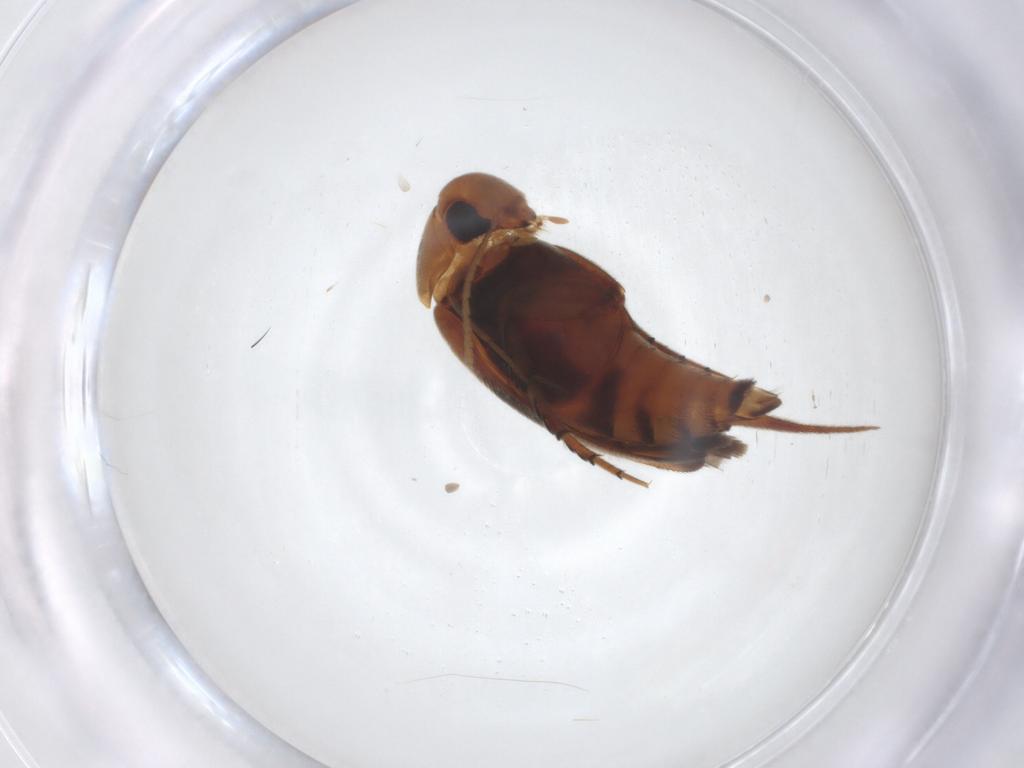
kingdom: Animalia
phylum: Arthropoda
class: Insecta
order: Coleoptera
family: Mordellidae
